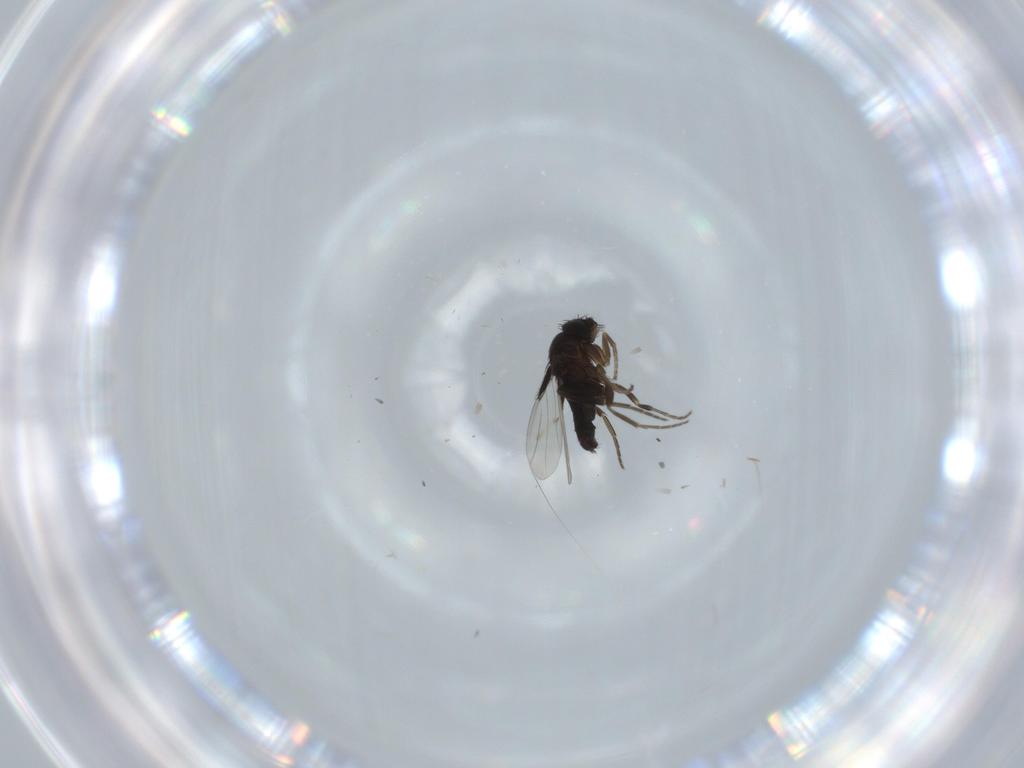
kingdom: Animalia
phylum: Arthropoda
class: Insecta
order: Diptera
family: Phoridae
